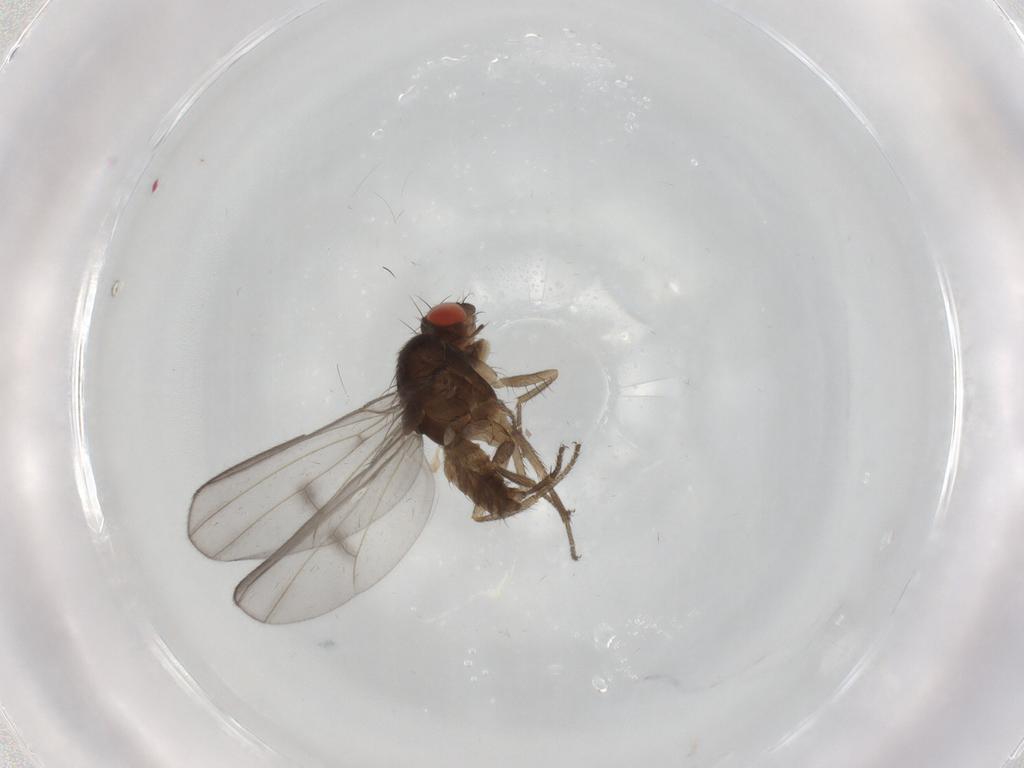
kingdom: Animalia
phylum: Arthropoda
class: Insecta
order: Diptera
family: Drosophilidae
